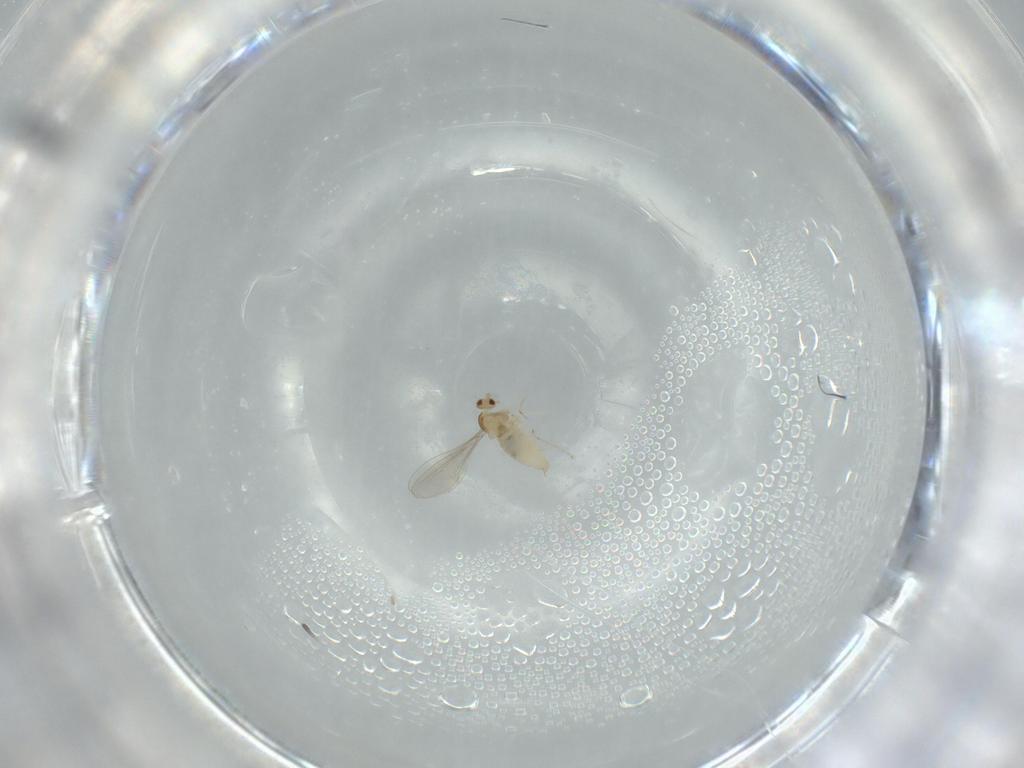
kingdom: Animalia
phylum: Arthropoda
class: Insecta
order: Diptera
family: Cecidomyiidae
